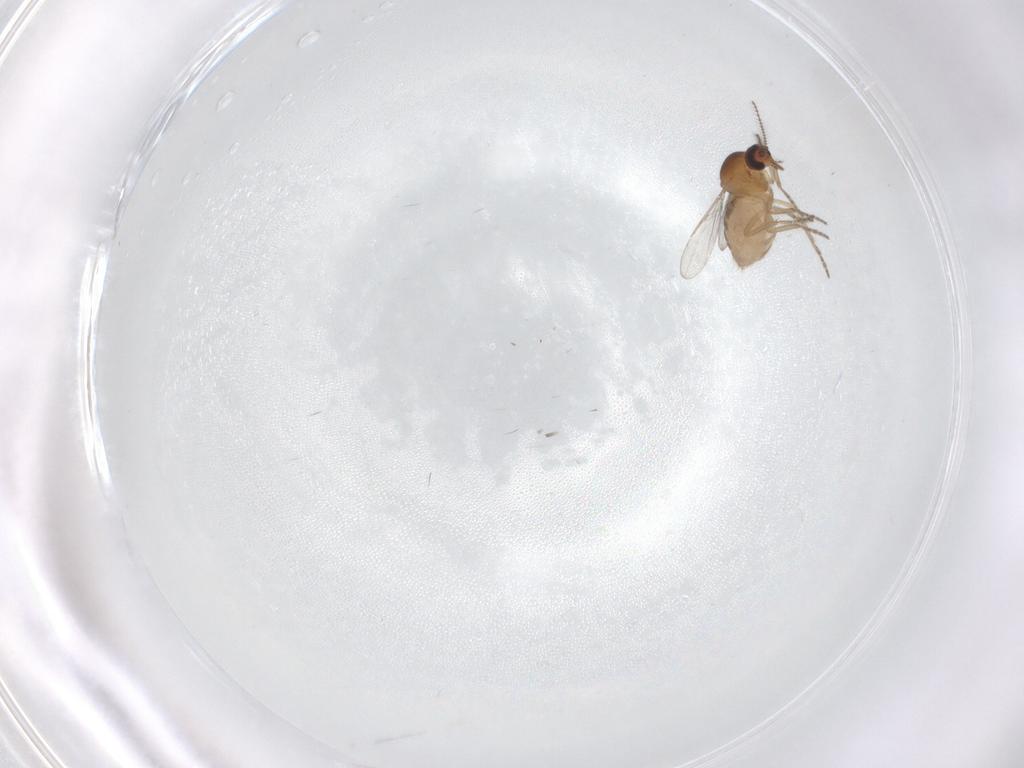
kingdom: Animalia
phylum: Arthropoda
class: Insecta
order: Diptera
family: Ceratopogonidae
